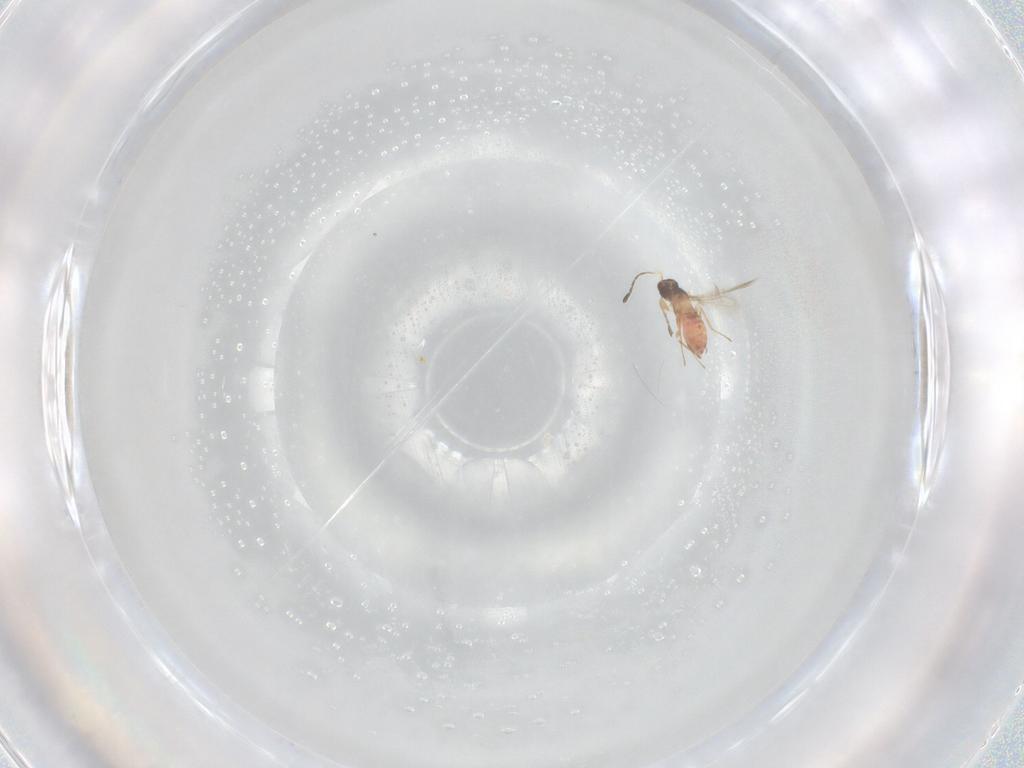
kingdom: Animalia
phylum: Arthropoda
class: Insecta
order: Hymenoptera
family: Mymaridae
